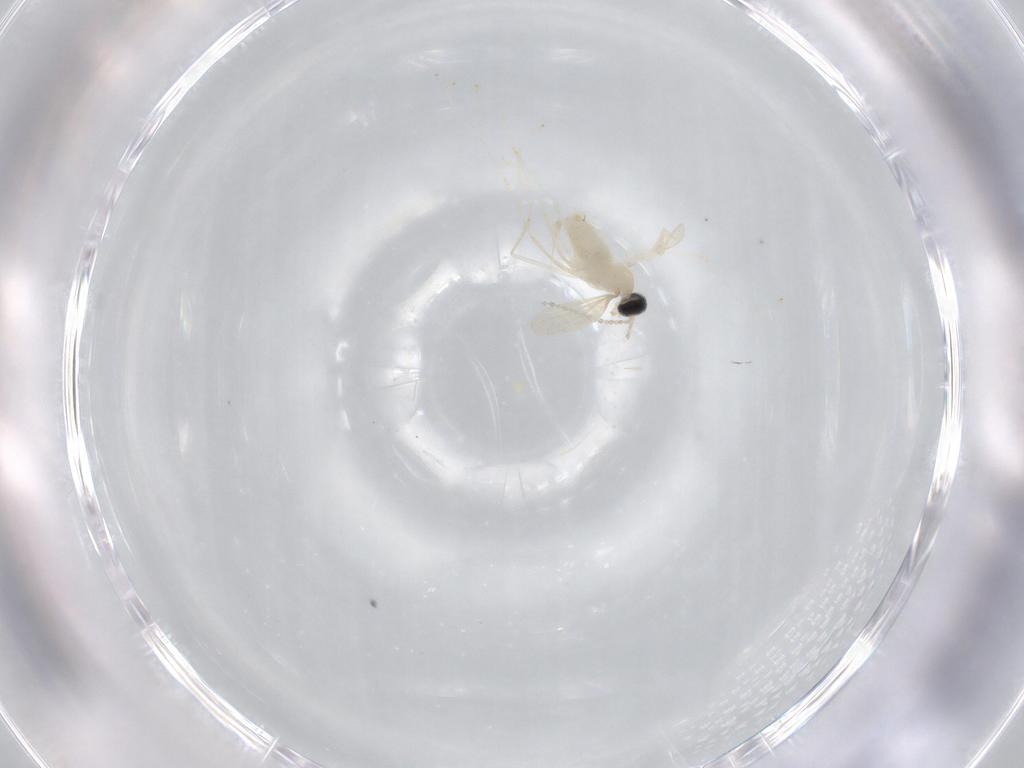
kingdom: Animalia
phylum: Arthropoda
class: Insecta
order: Diptera
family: Cecidomyiidae
